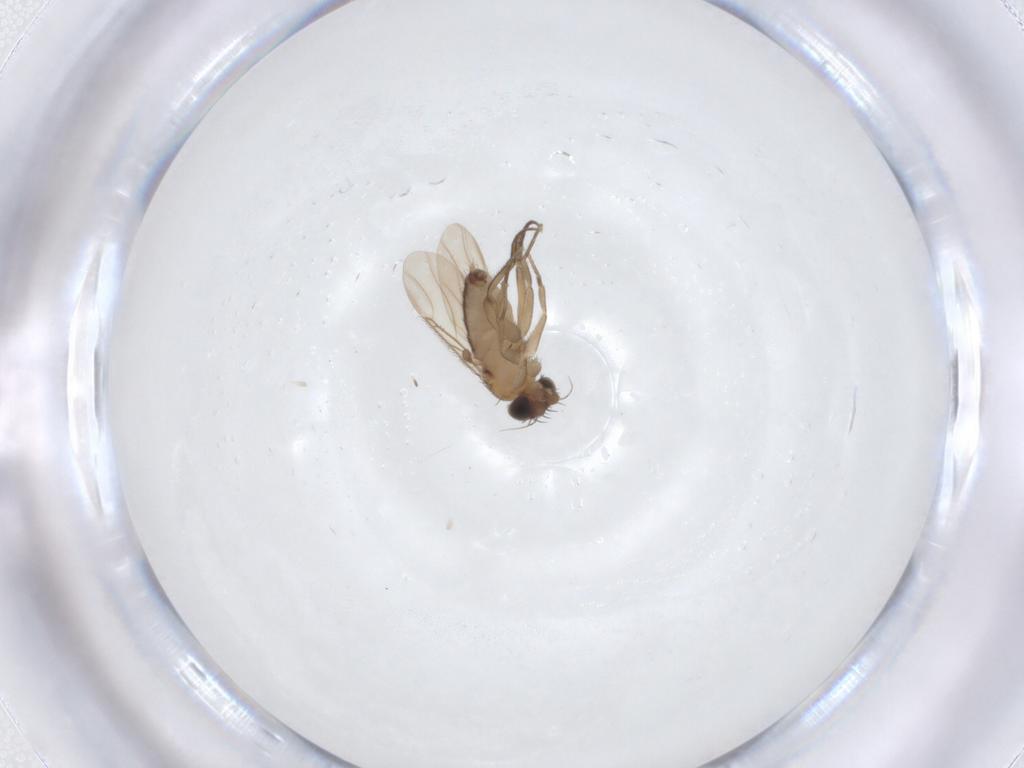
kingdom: Animalia
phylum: Arthropoda
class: Insecta
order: Diptera
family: Phoridae
